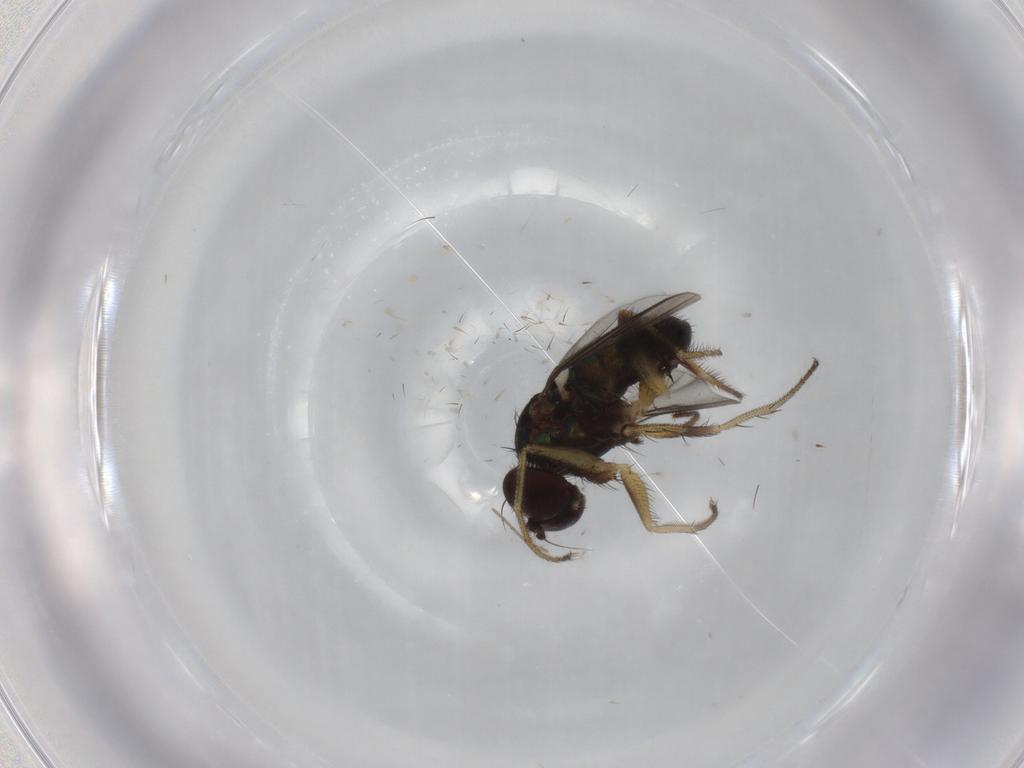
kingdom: Animalia
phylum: Arthropoda
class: Insecta
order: Diptera
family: Dolichopodidae
